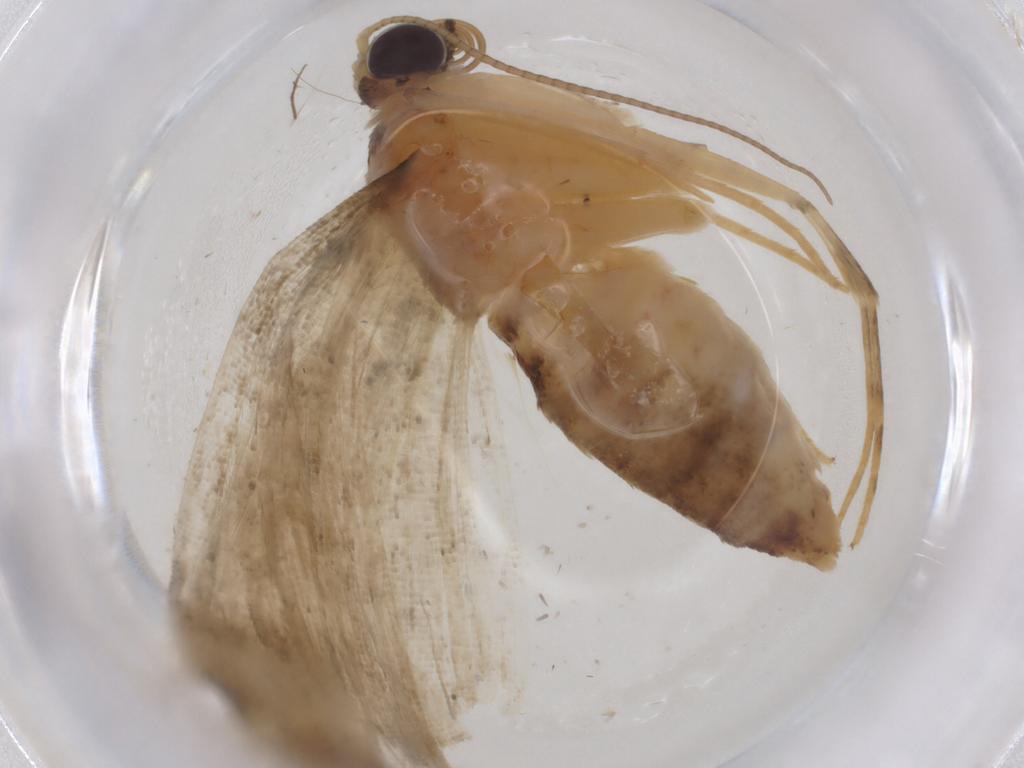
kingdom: Animalia
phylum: Arthropoda
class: Insecta
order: Lepidoptera
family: Geometridae
